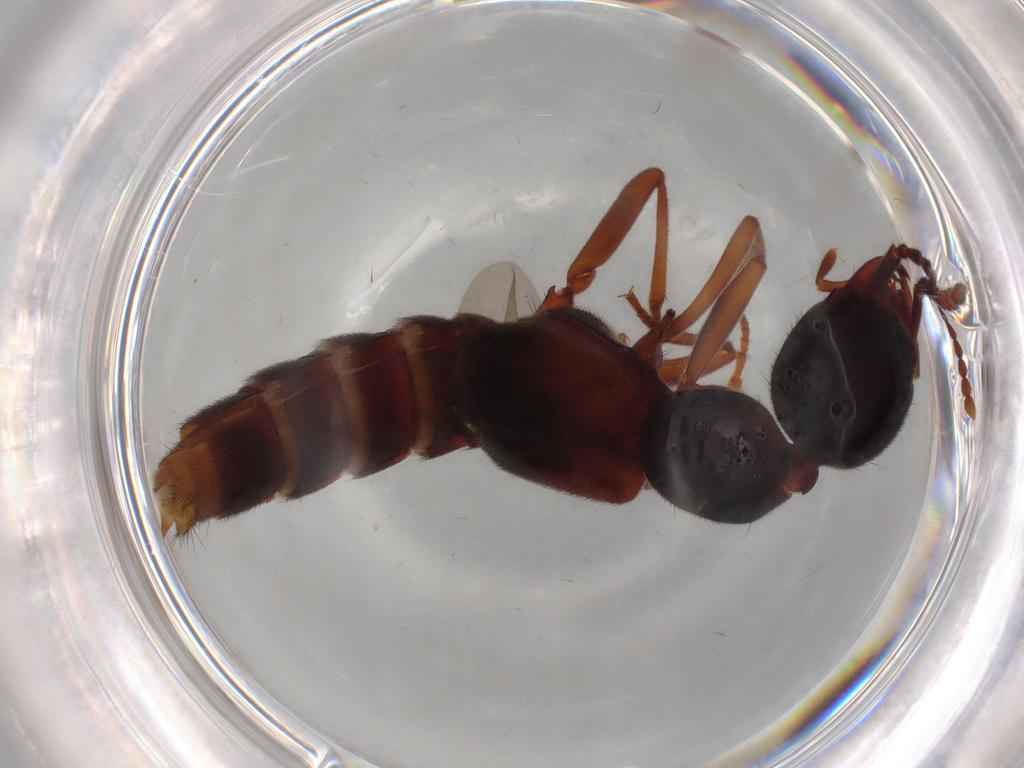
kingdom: Animalia
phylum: Arthropoda
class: Insecta
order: Coleoptera
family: Staphylinidae
